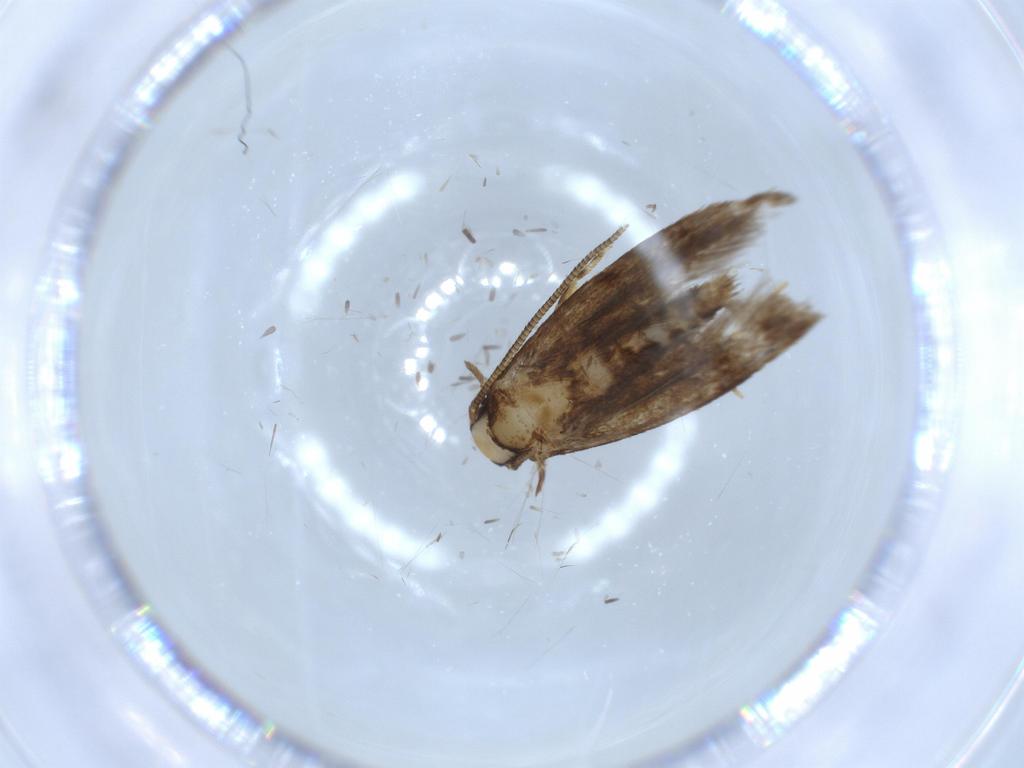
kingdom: Animalia
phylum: Arthropoda
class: Insecta
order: Lepidoptera
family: Tineidae
